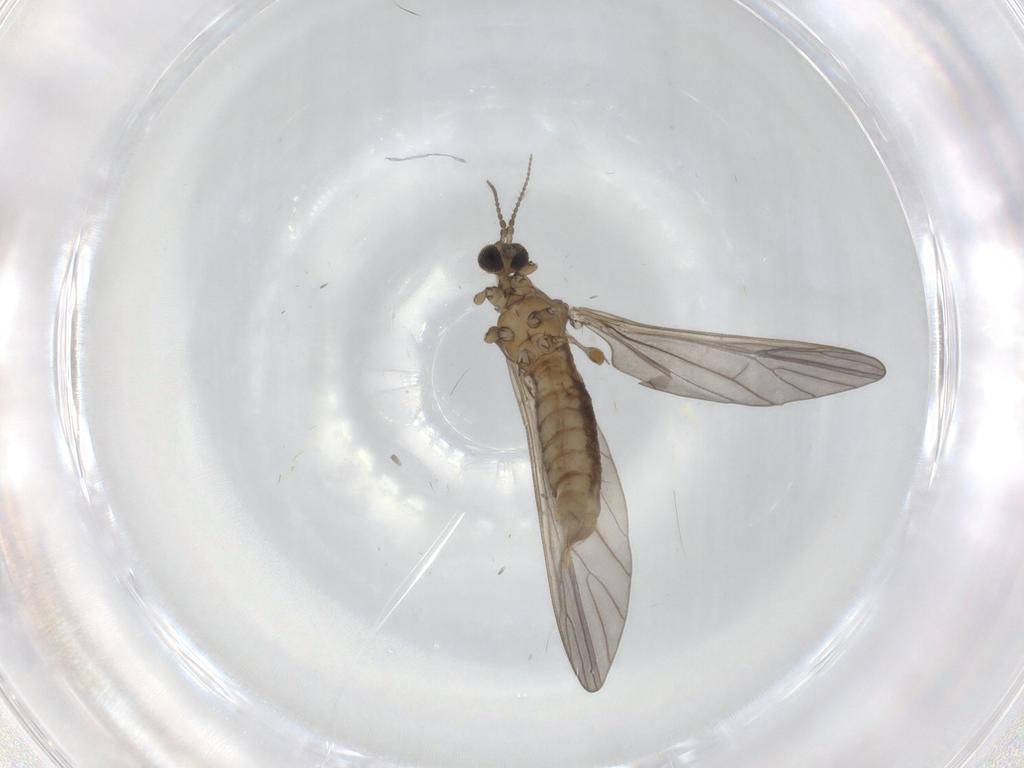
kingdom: Animalia
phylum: Arthropoda
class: Insecta
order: Diptera
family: Limoniidae
